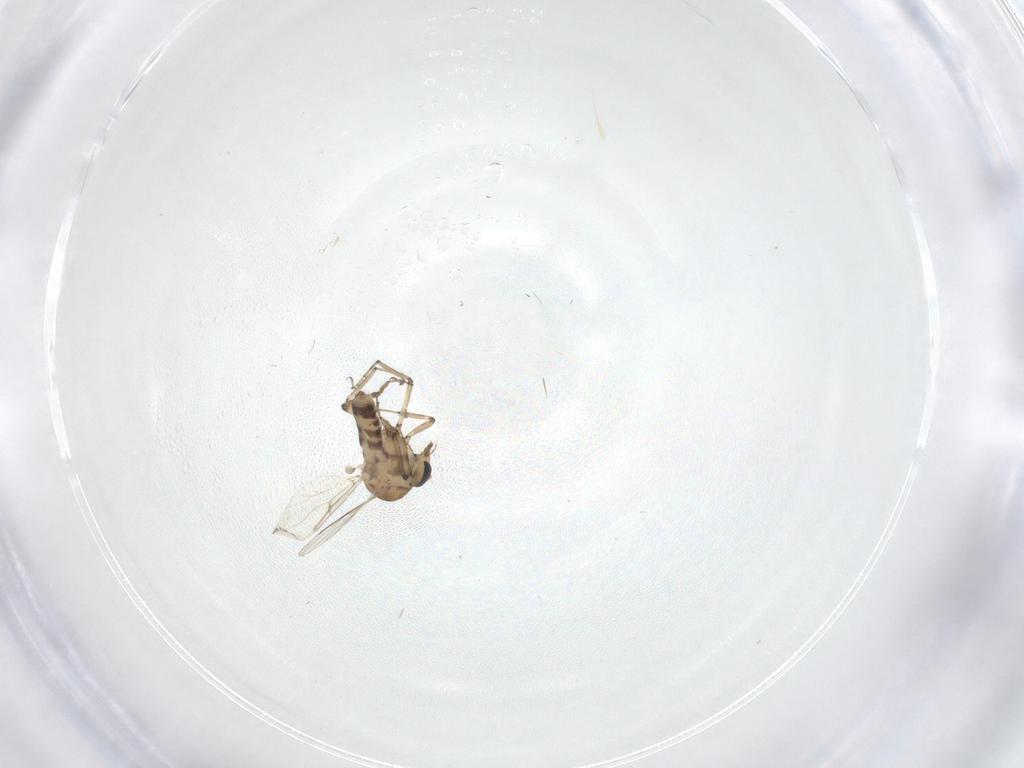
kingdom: Animalia
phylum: Arthropoda
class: Insecta
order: Diptera
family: Ceratopogonidae
